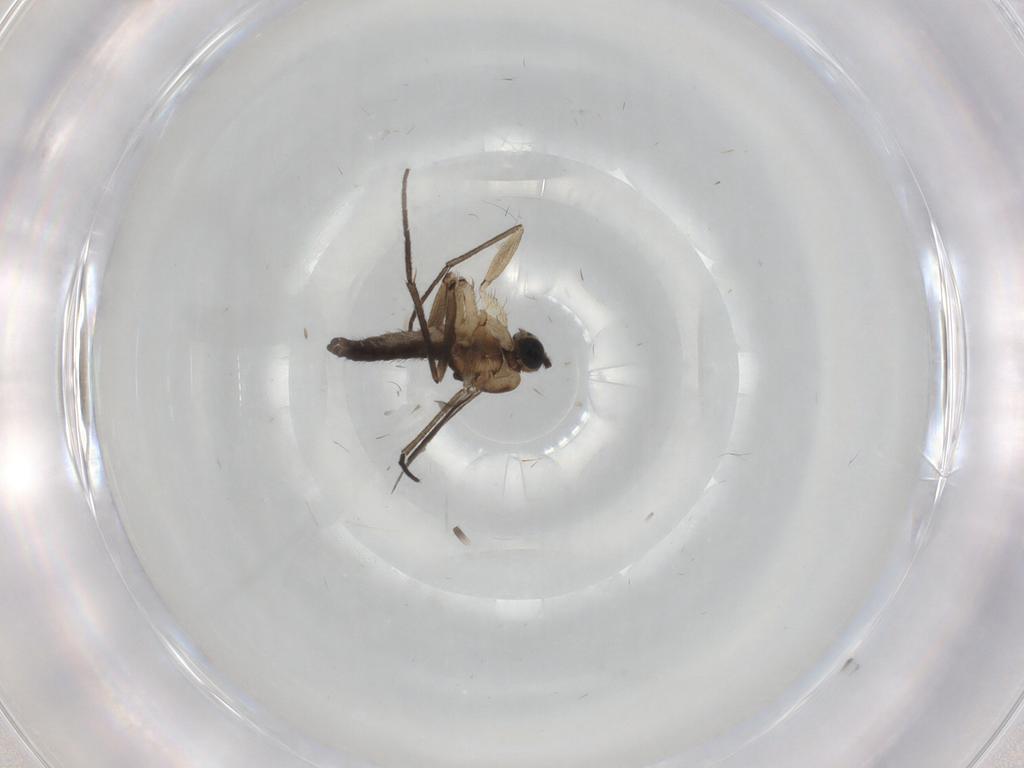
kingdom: Animalia
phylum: Arthropoda
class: Insecta
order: Diptera
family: Sciaridae
